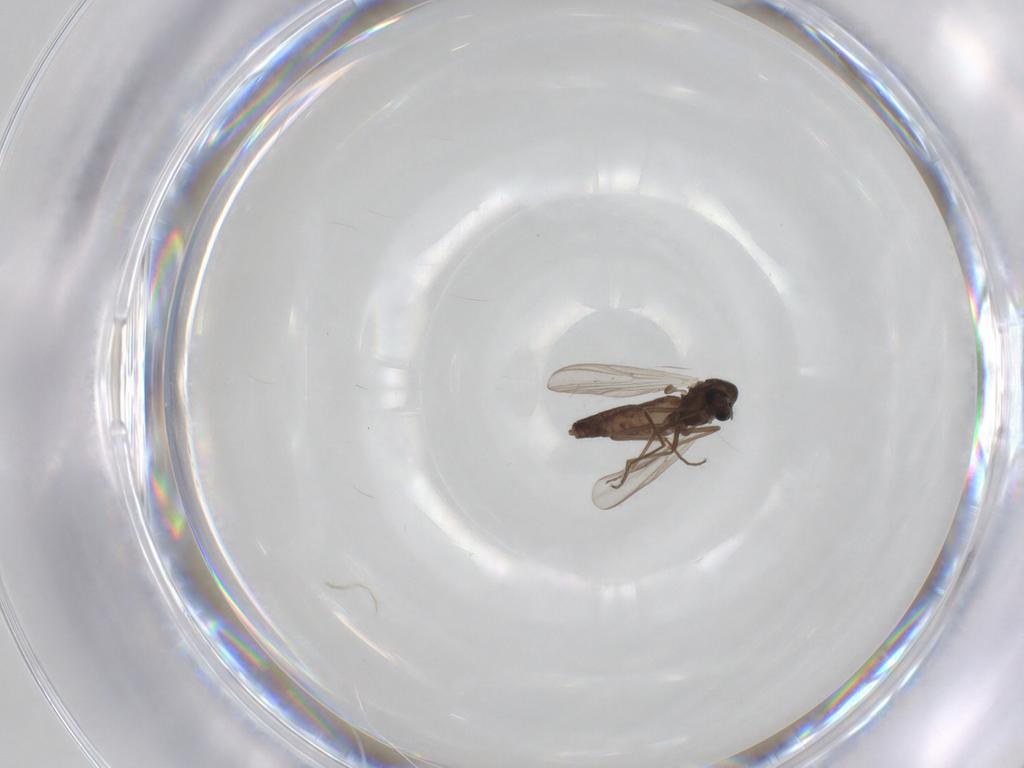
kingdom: Animalia
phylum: Arthropoda
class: Insecta
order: Diptera
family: Chironomidae
